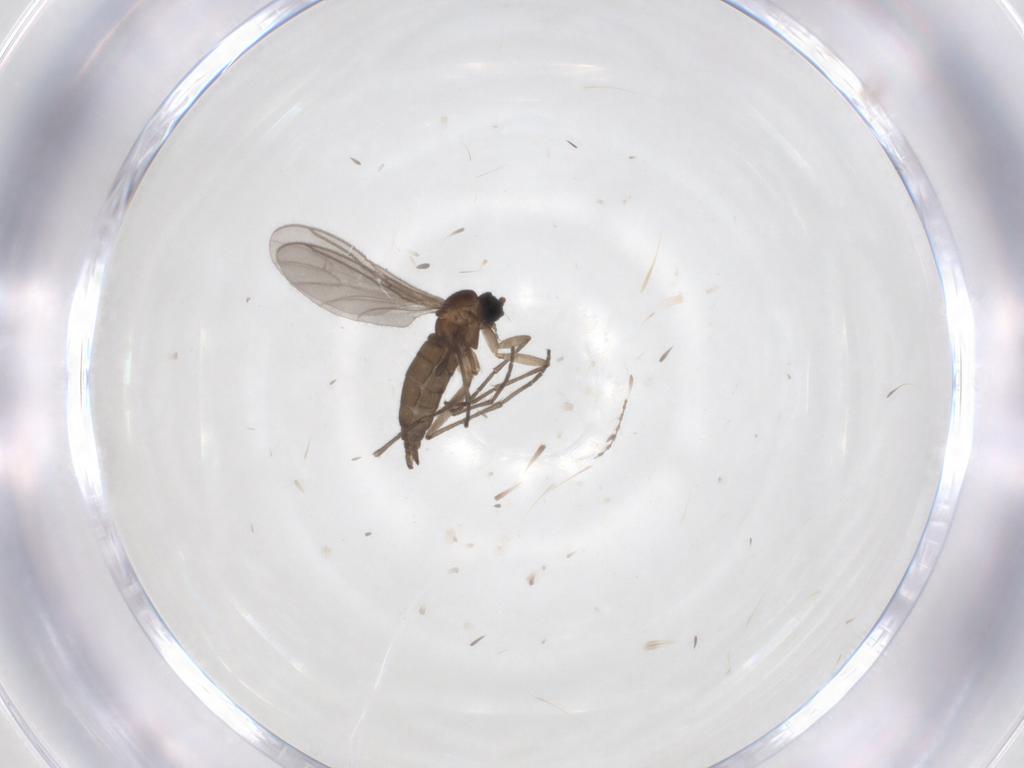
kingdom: Animalia
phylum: Arthropoda
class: Insecta
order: Diptera
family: Sciaridae
